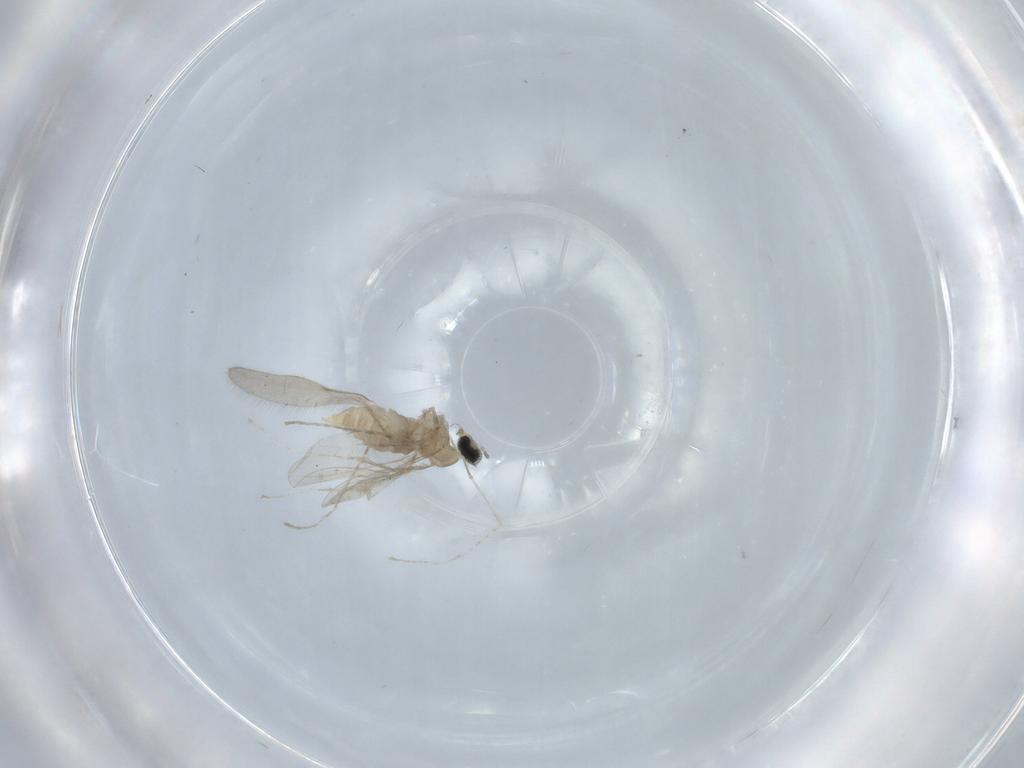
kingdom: Animalia
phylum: Arthropoda
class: Insecta
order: Diptera
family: Cecidomyiidae
